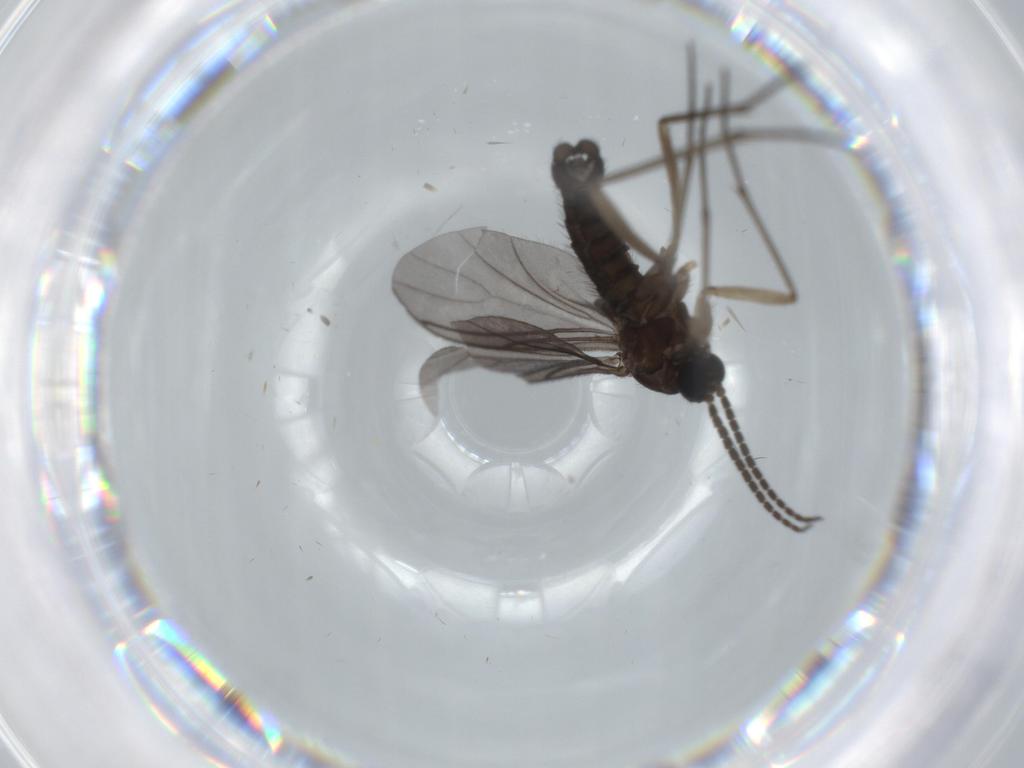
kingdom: Animalia
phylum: Arthropoda
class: Insecta
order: Diptera
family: Sciaridae
